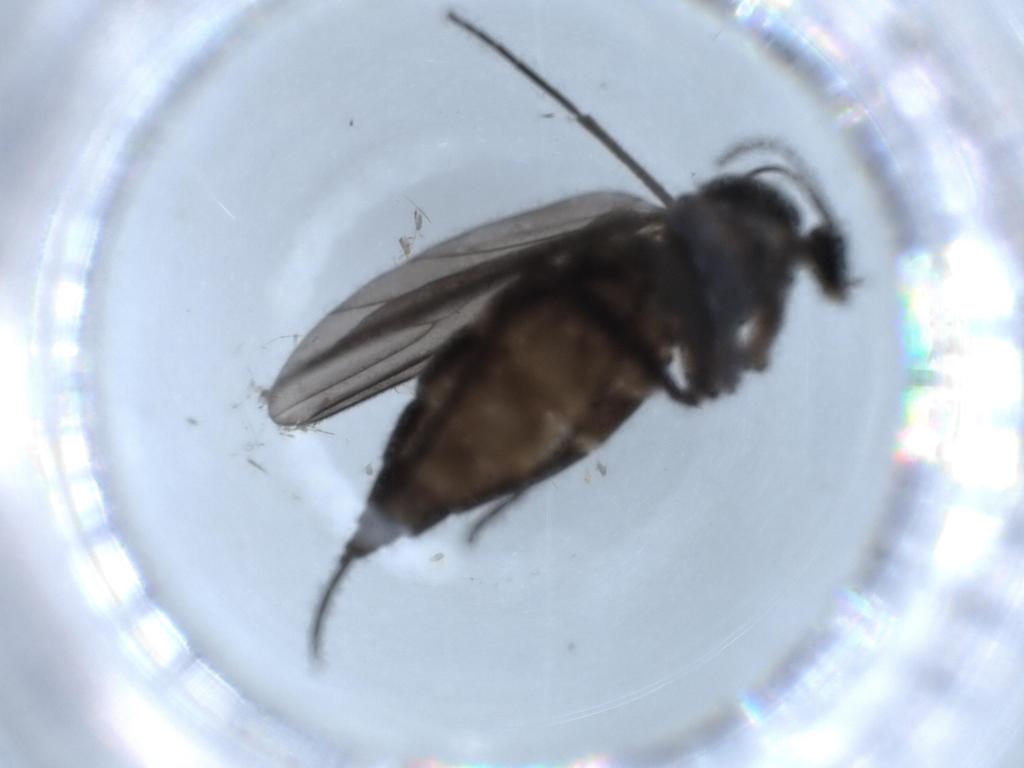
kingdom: Animalia
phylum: Arthropoda
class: Insecta
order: Diptera
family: Sciaridae
